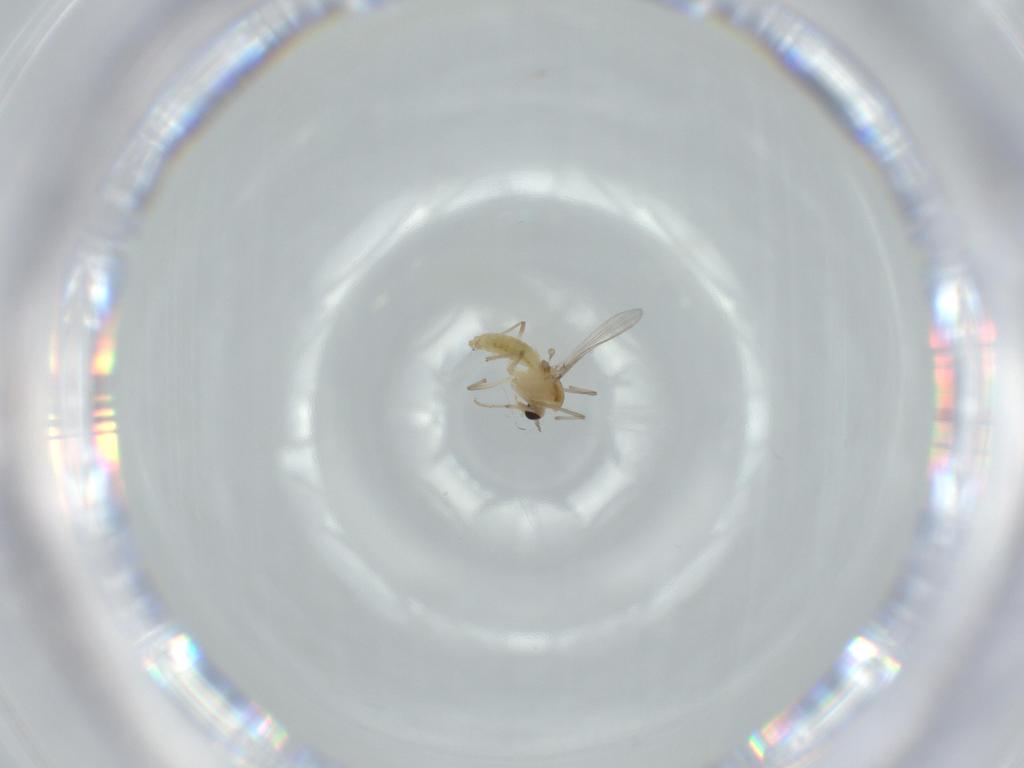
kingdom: Animalia
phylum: Arthropoda
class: Insecta
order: Diptera
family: Chironomidae
